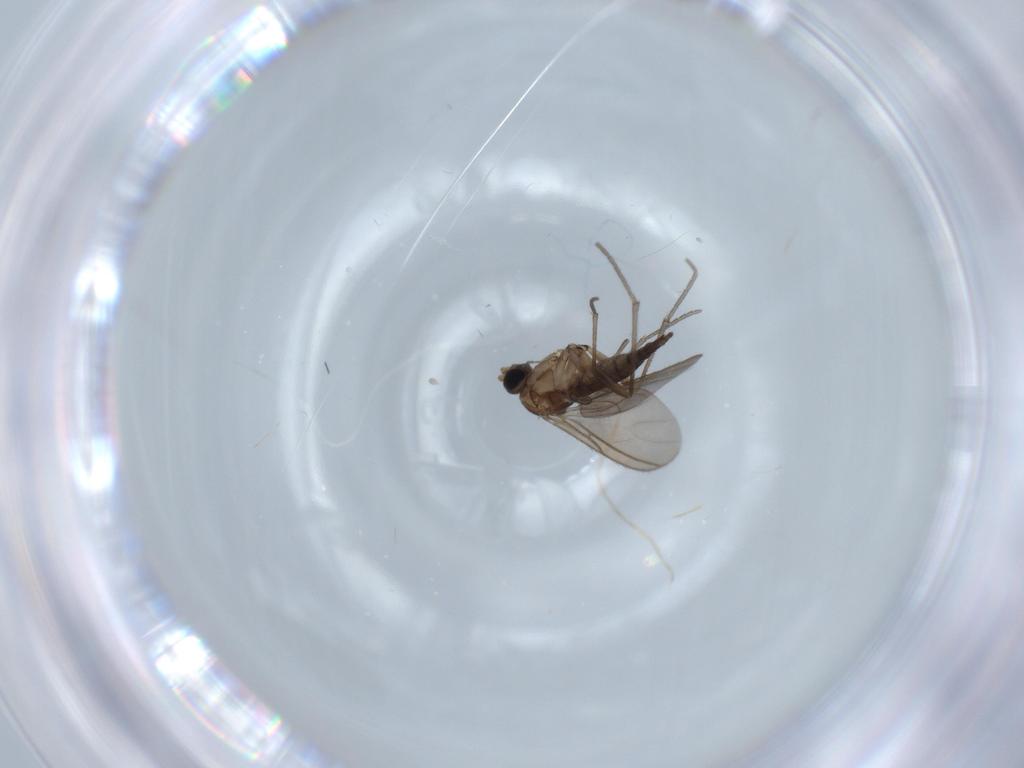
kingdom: Animalia
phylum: Arthropoda
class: Insecta
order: Diptera
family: Sciaridae
